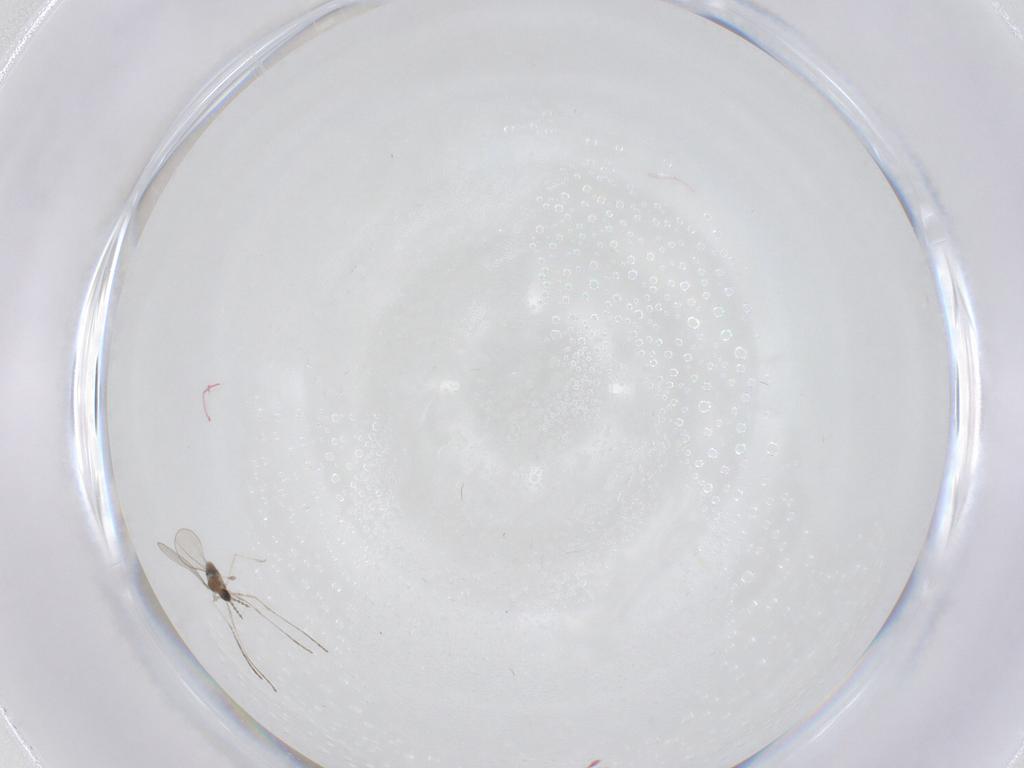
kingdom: Animalia
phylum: Arthropoda
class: Insecta
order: Diptera
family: Cecidomyiidae
